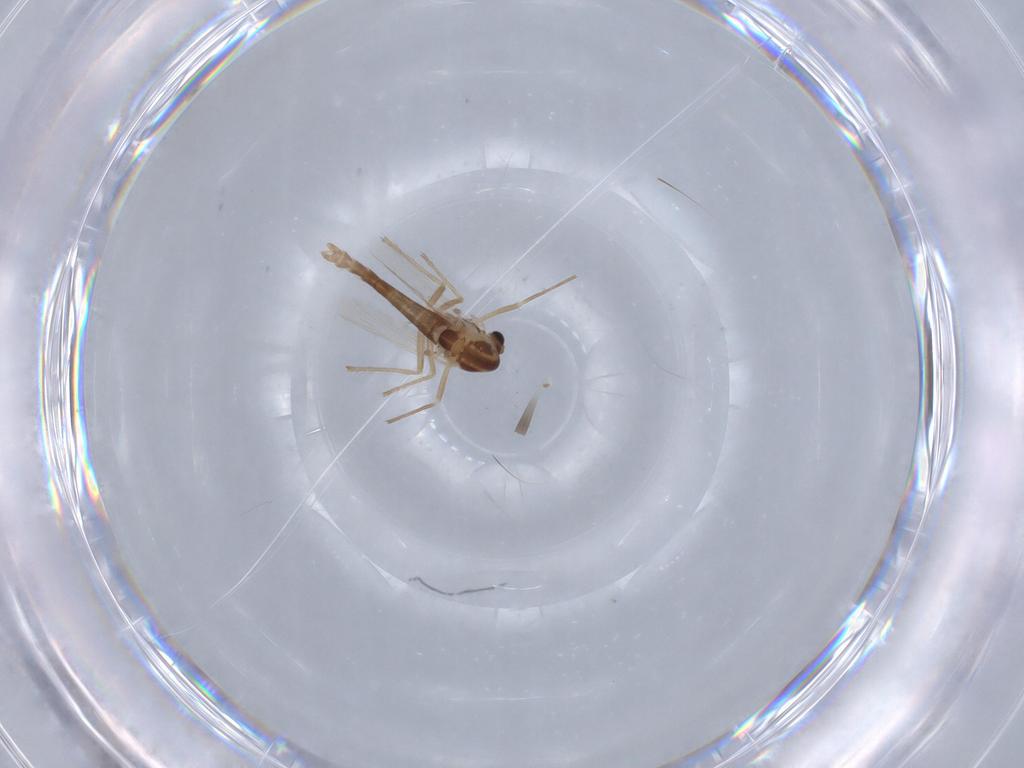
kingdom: Animalia
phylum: Arthropoda
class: Insecta
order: Diptera
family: Chironomidae
